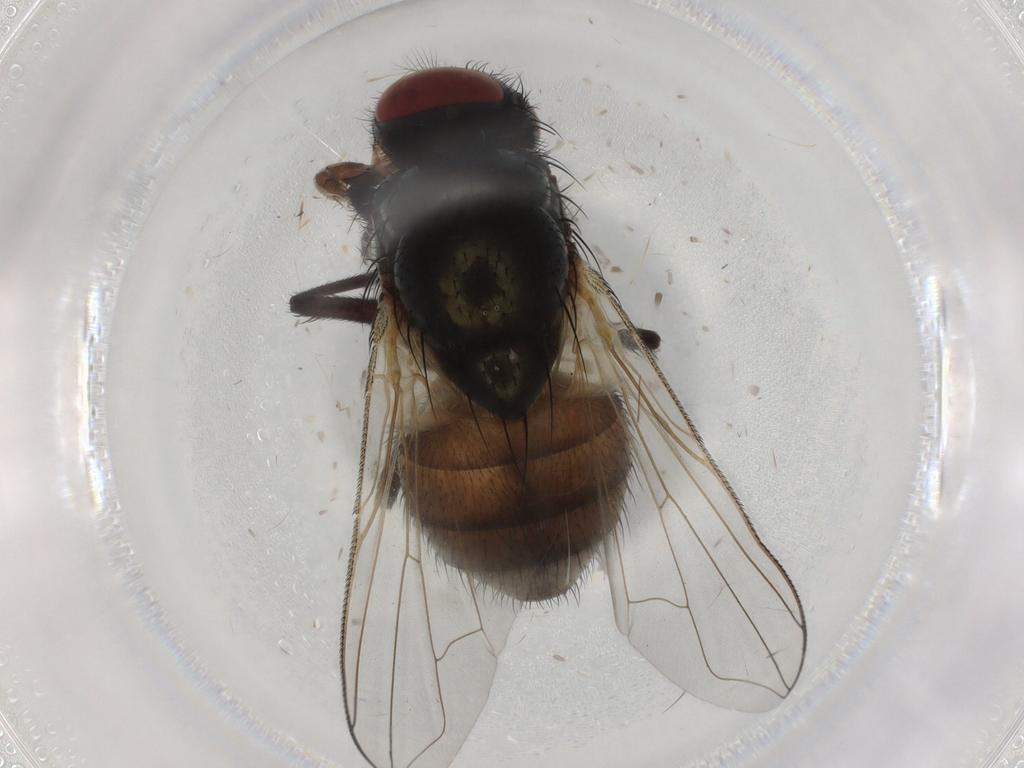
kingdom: Animalia
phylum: Arthropoda
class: Insecta
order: Diptera
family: Muscidae
